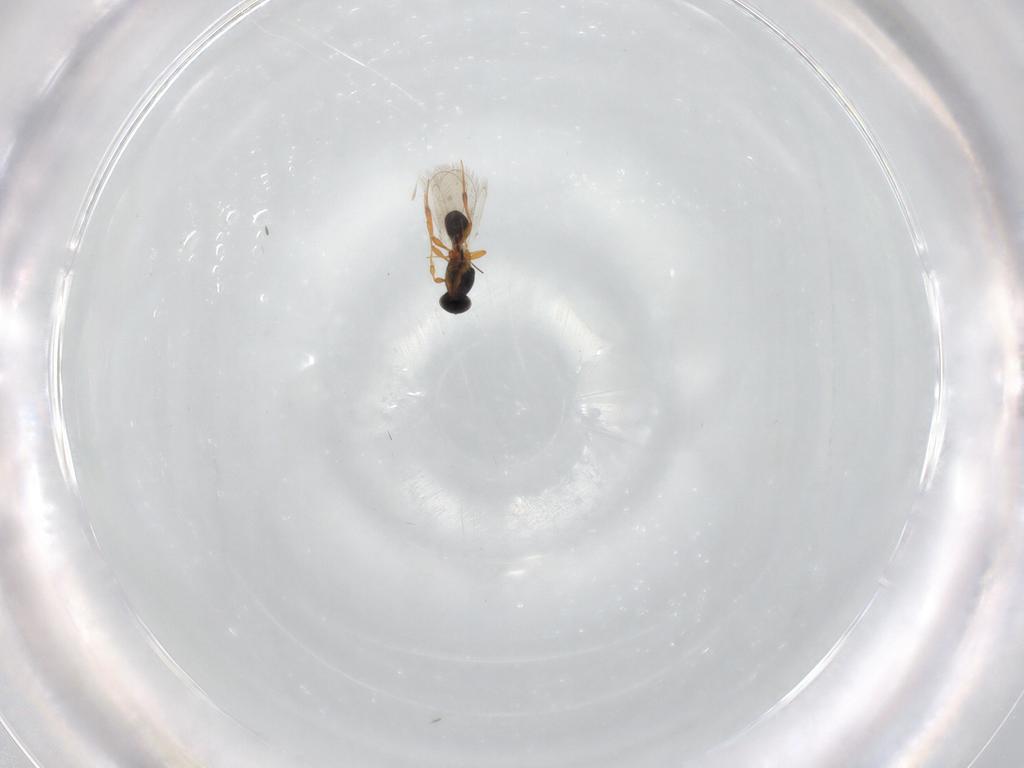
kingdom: Animalia
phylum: Arthropoda
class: Insecta
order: Hymenoptera
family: Platygastridae
